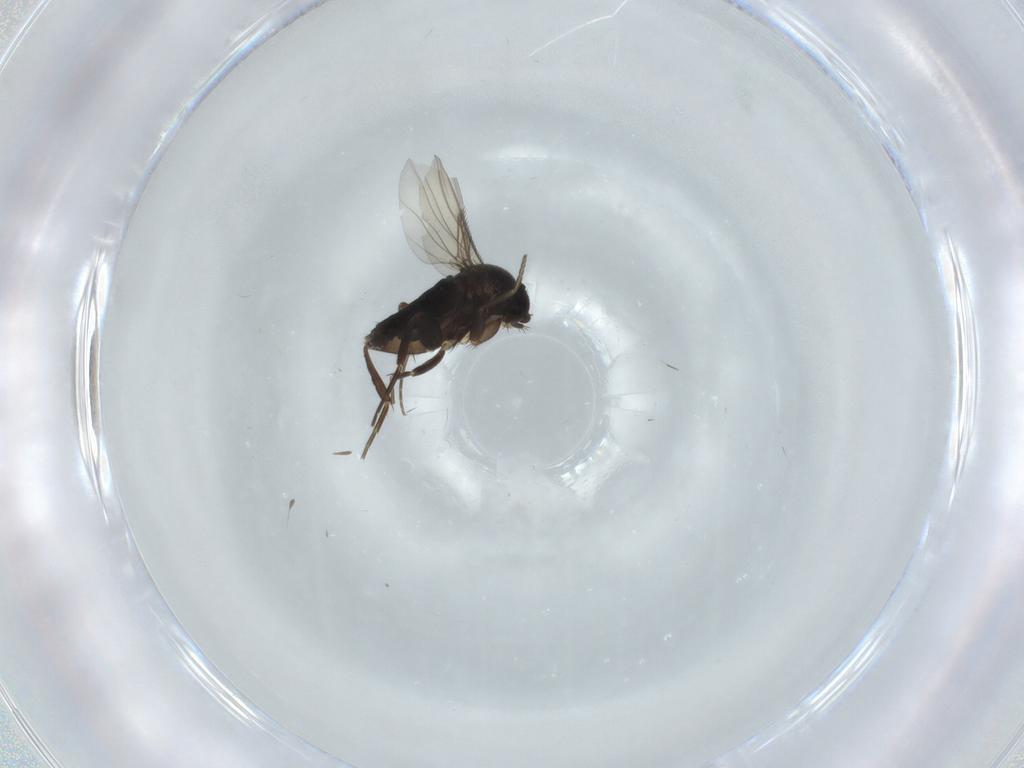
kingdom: Animalia
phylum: Arthropoda
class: Insecta
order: Diptera
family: Phoridae
